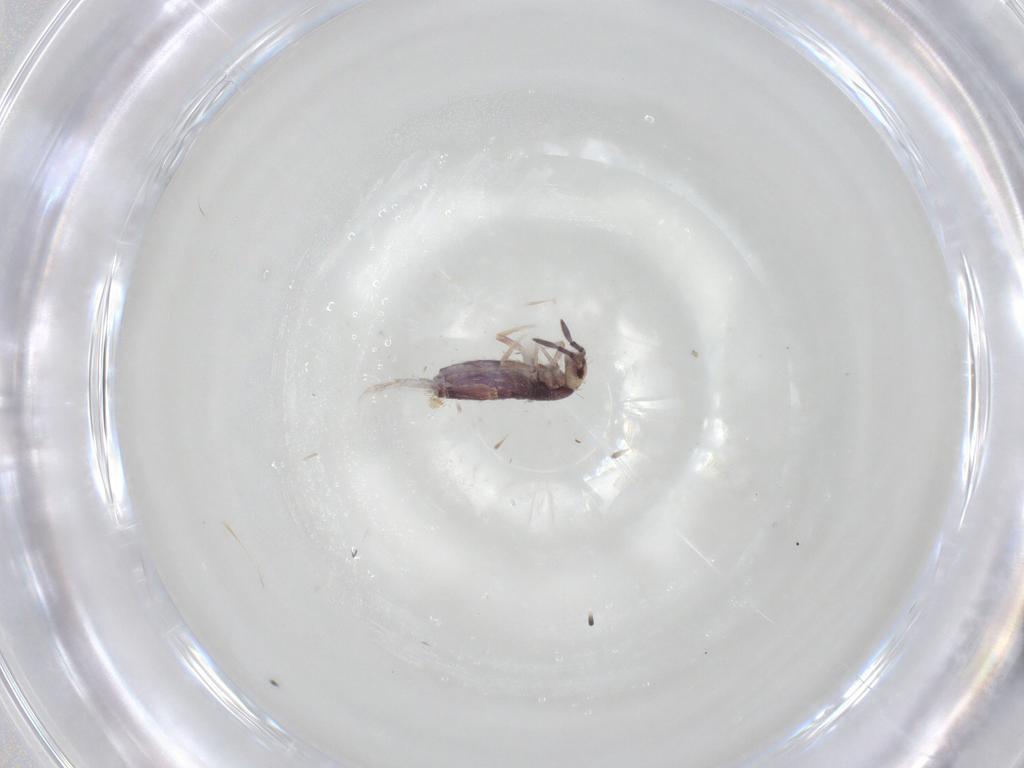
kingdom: Animalia
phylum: Arthropoda
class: Collembola
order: Entomobryomorpha
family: Entomobryidae
